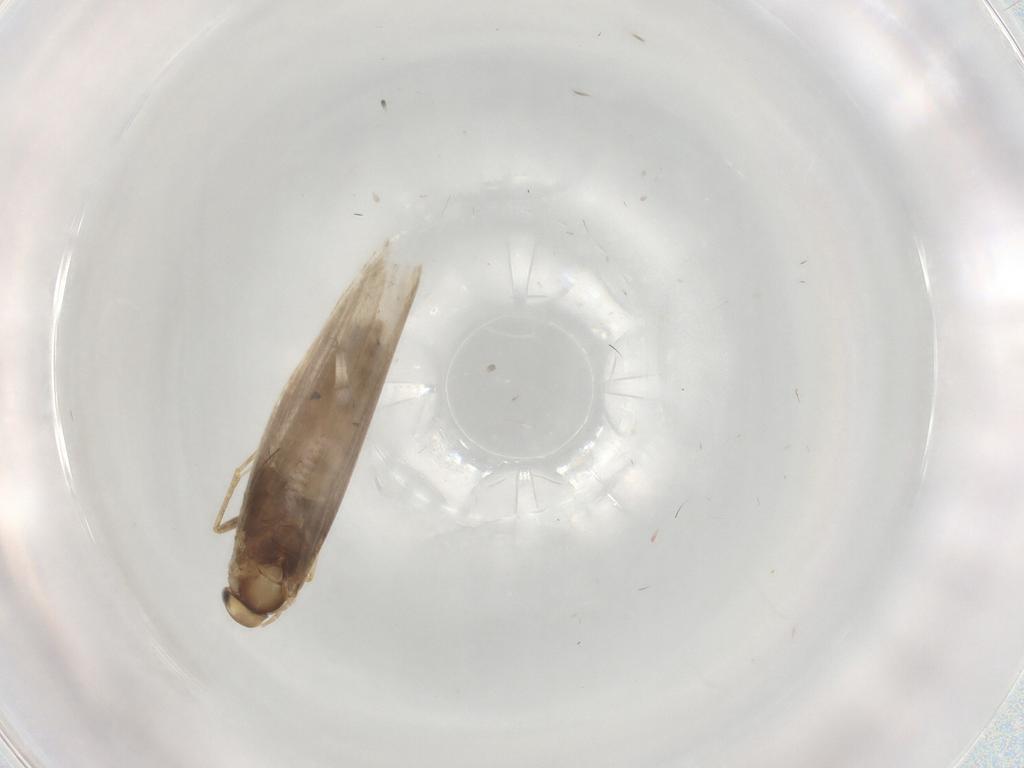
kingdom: Animalia
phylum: Arthropoda
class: Insecta
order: Lepidoptera
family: Gracillariidae
